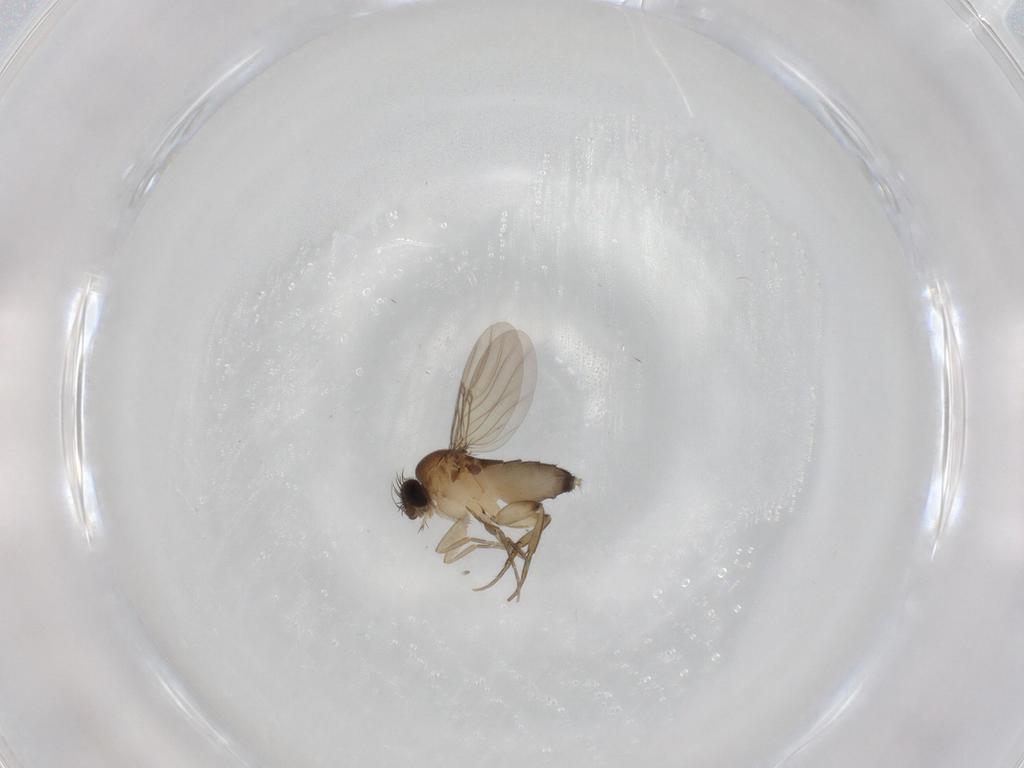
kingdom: Animalia
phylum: Arthropoda
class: Insecta
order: Diptera
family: Phoridae
